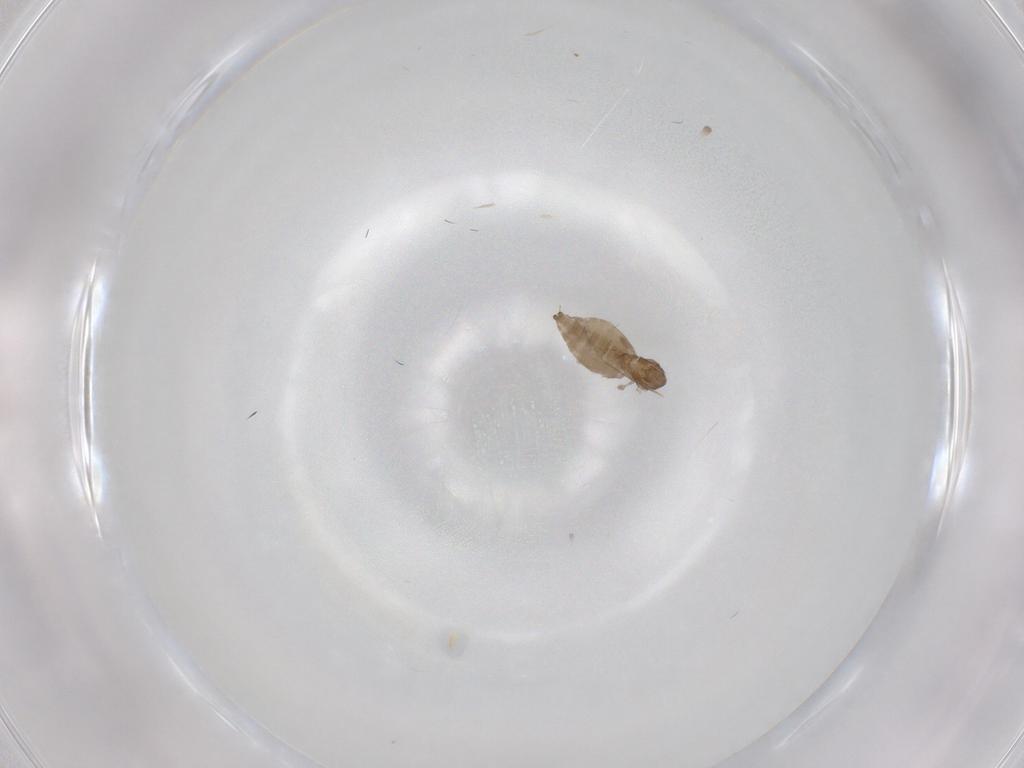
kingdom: Animalia
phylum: Arthropoda
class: Insecta
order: Diptera
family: Cecidomyiidae
